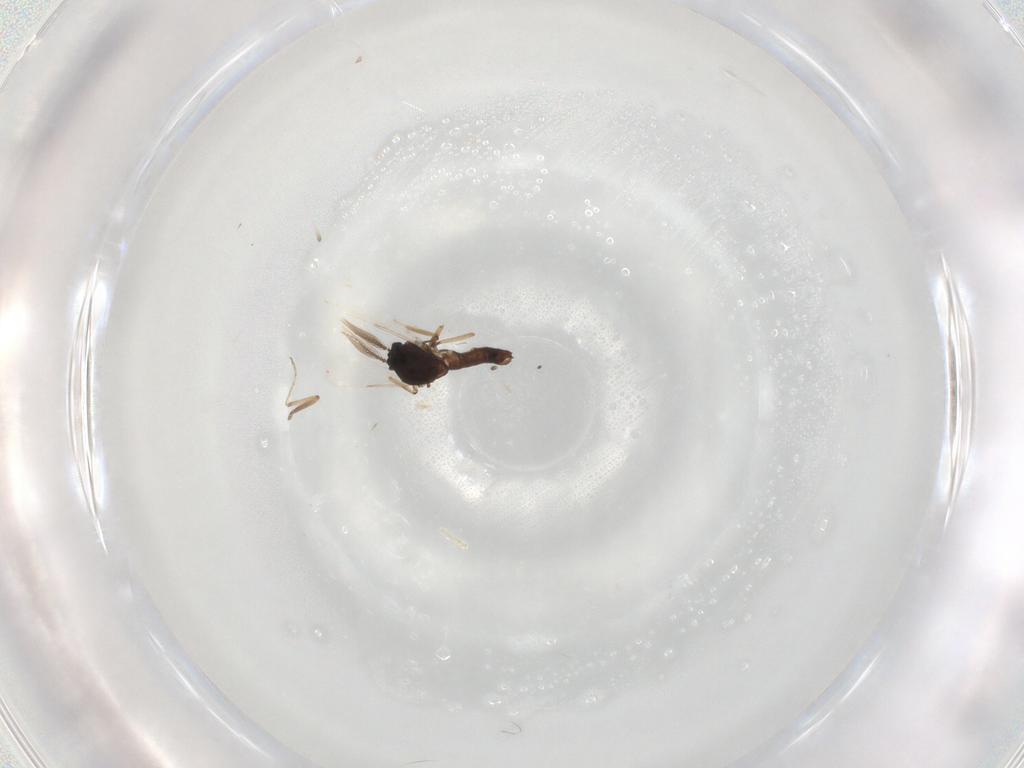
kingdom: Animalia
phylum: Arthropoda
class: Insecta
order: Diptera
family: Ceratopogonidae
